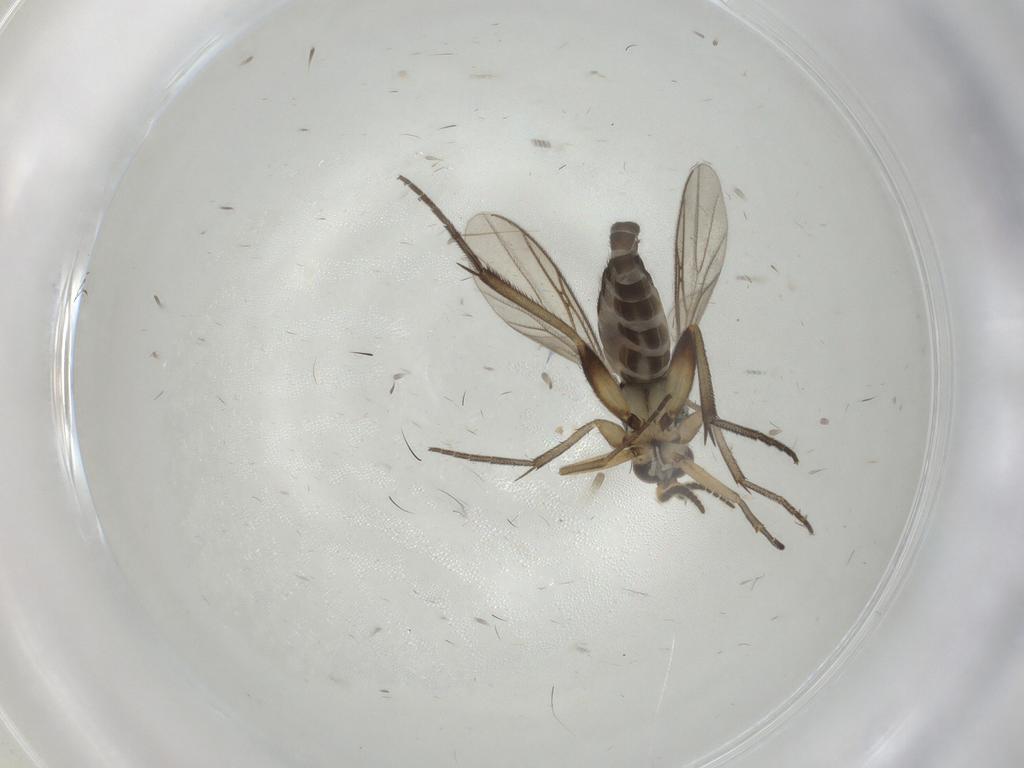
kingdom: Animalia
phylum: Arthropoda
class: Insecta
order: Diptera
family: Mycetophilidae
